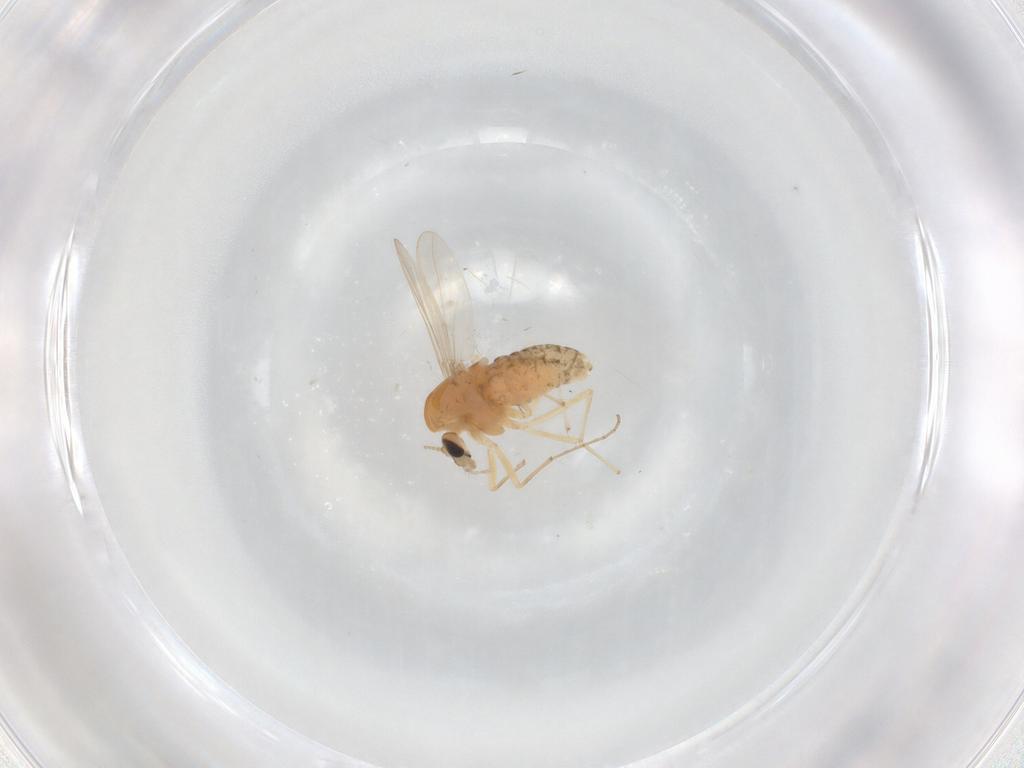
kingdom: Animalia
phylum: Arthropoda
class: Insecta
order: Diptera
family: Chironomidae
